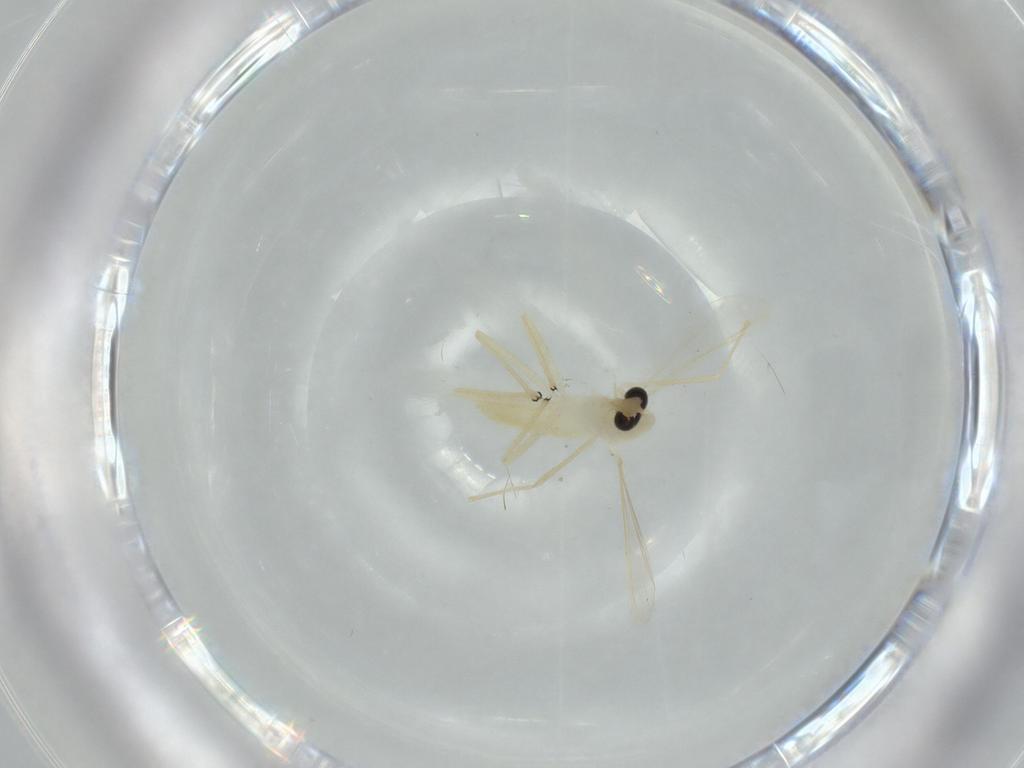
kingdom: Animalia
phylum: Arthropoda
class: Insecta
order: Diptera
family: Chironomidae
